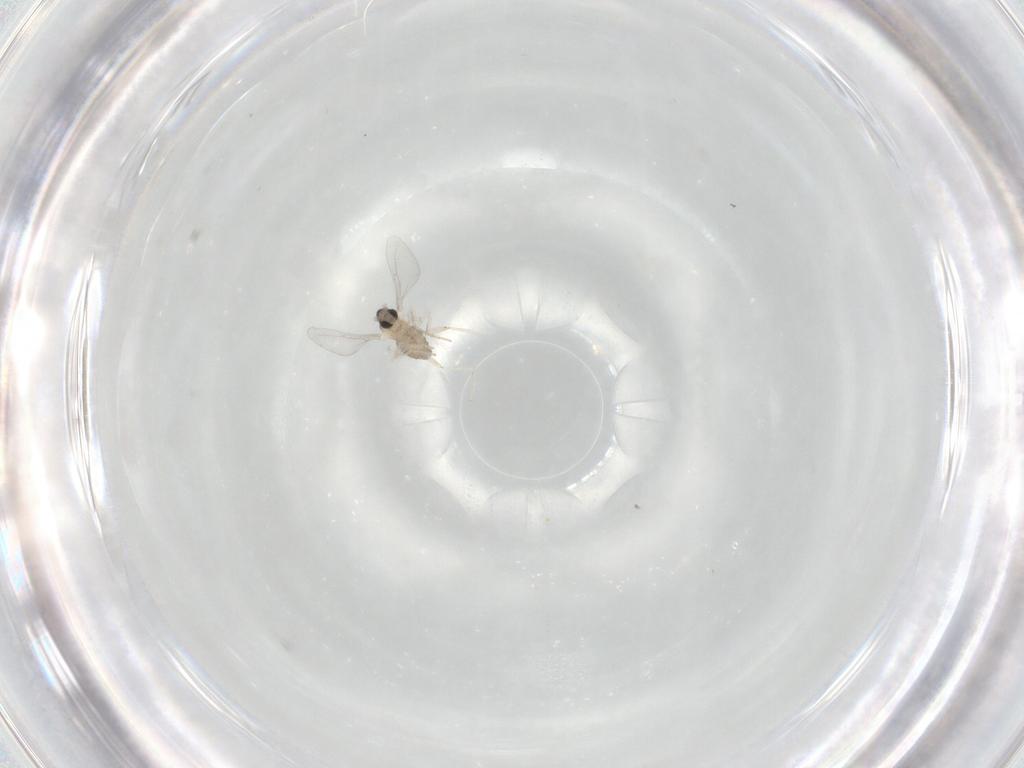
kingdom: Animalia
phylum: Arthropoda
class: Insecta
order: Diptera
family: Cecidomyiidae
